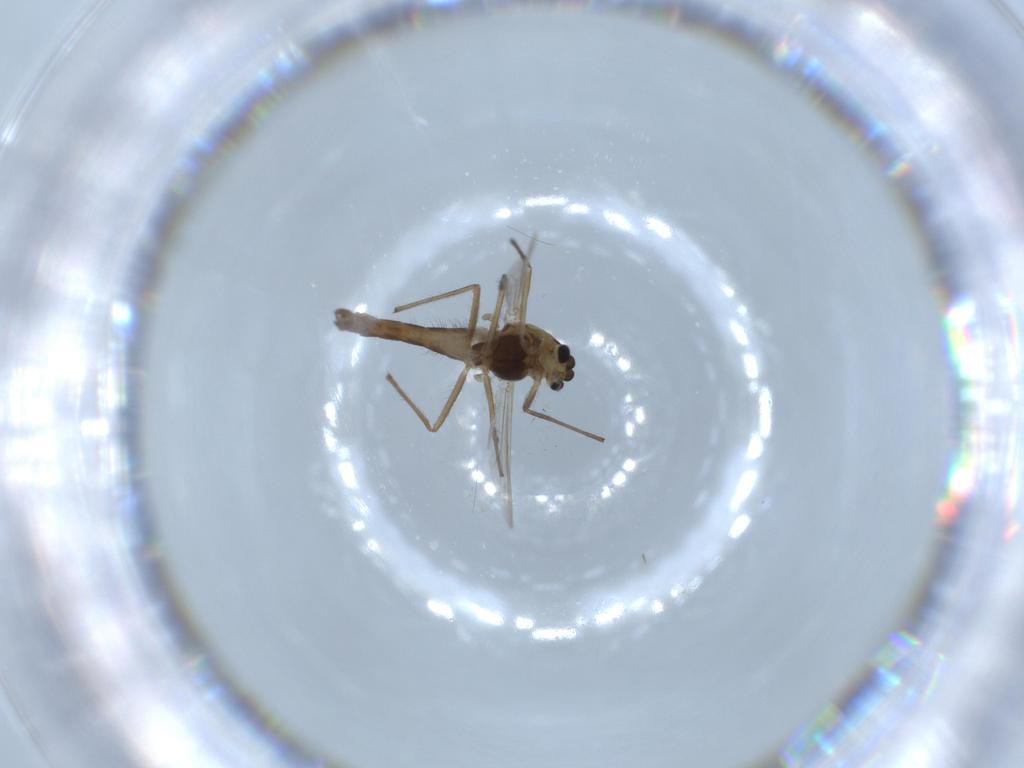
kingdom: Animalia
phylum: Arthropoda
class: Insecta
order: Diptera
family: Chironomidae
